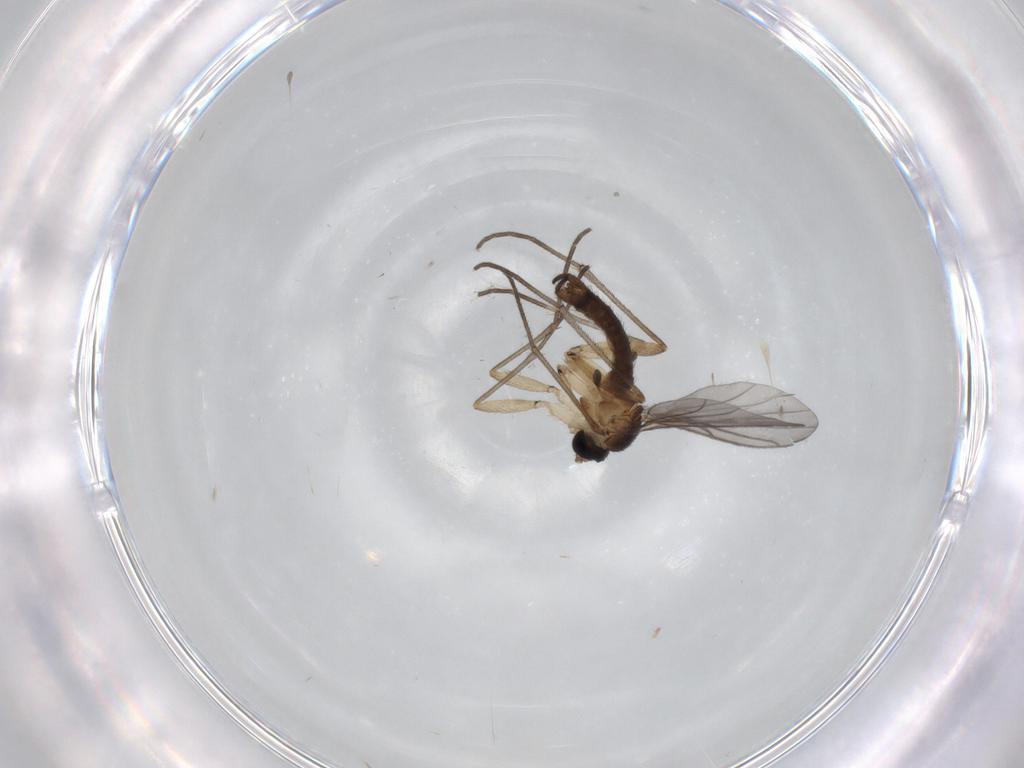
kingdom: Animalia
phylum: Arthropoda
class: Insecta
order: Diptera
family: Sciaridae
